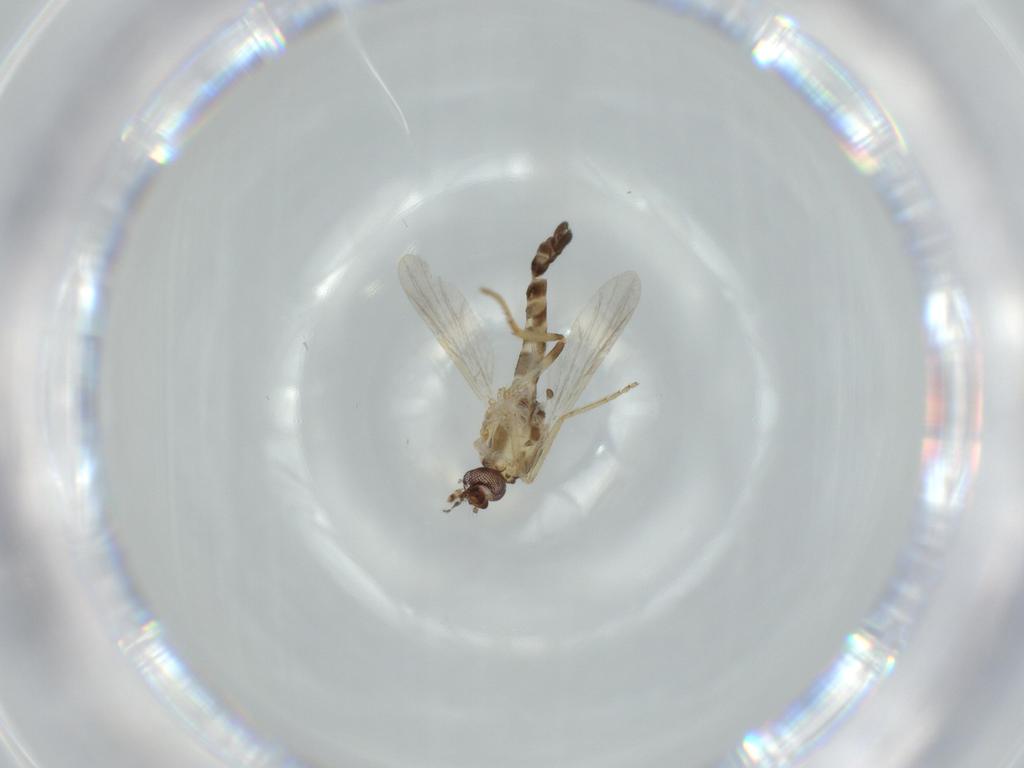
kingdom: Animalia
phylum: Arthropoda
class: Insecta
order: Diptera
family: Ceratopogonidae
